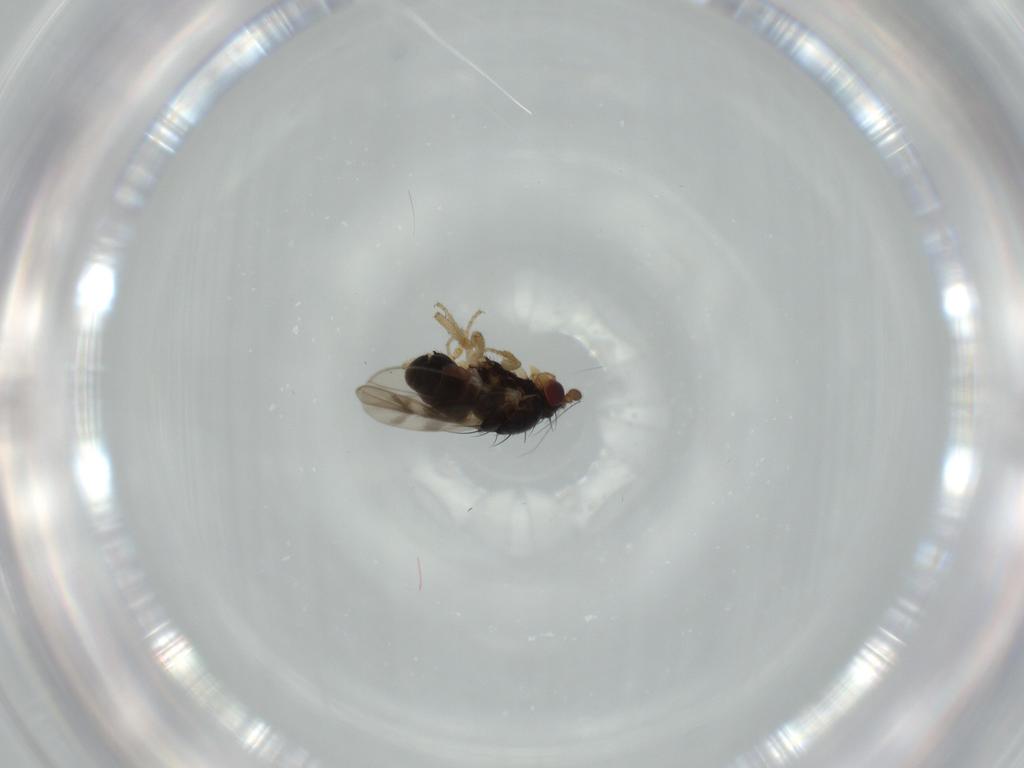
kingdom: Animalia
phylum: Arthropoda
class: Insecta
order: Diptera
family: Sphaeroceridae
